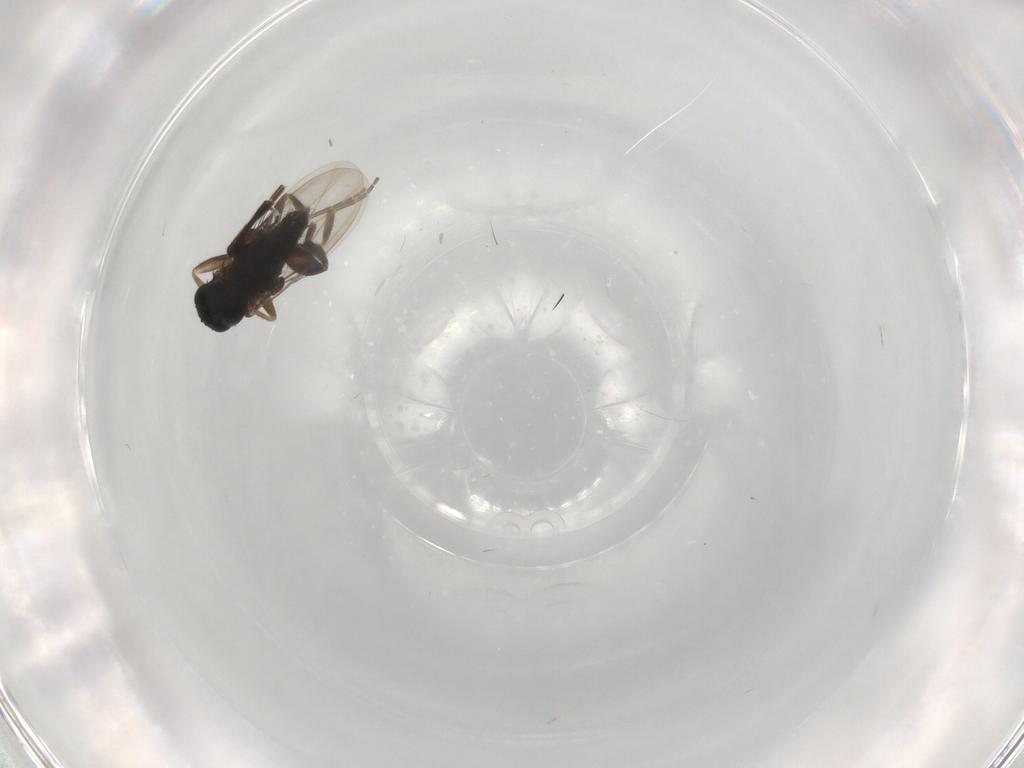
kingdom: Animalia
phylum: Arthropoda
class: Insecta
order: Diptera
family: Phoridae
